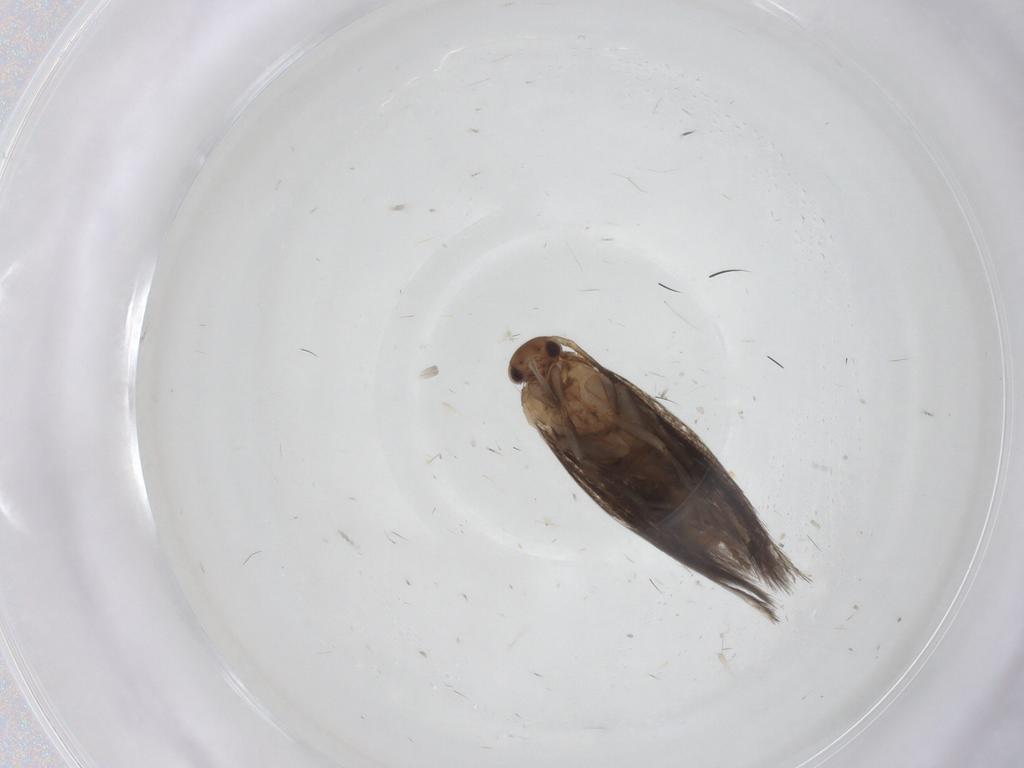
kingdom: Animalia
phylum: Arthropoda
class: Insecta
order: Lepidoptera
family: Elachistidae
